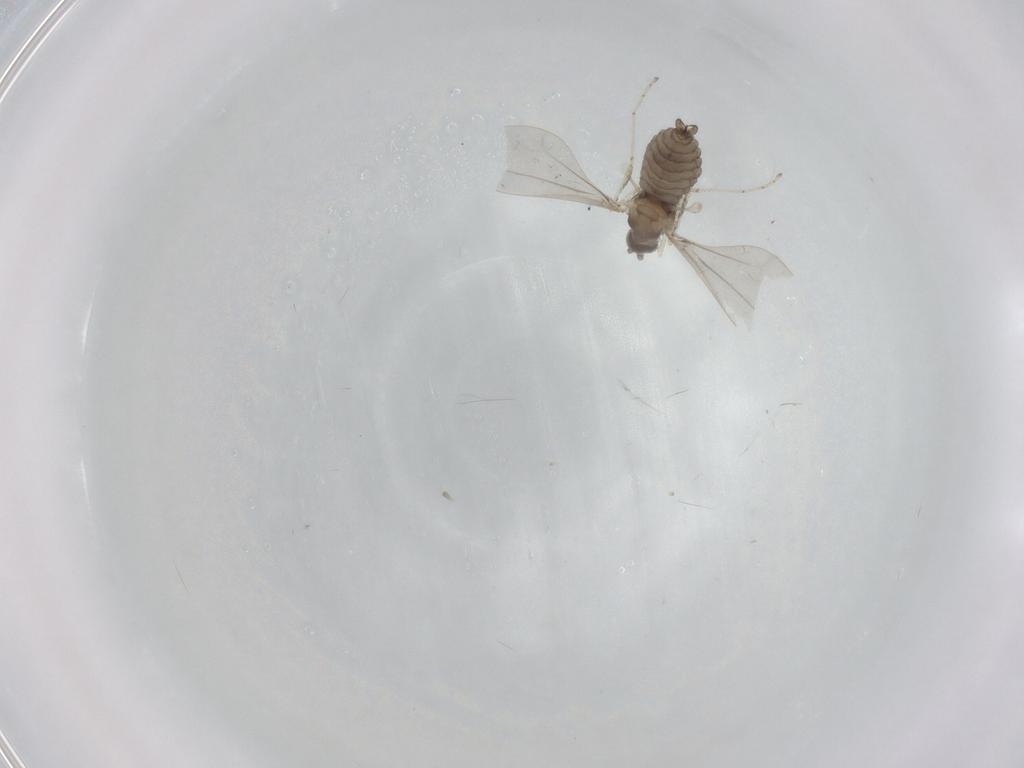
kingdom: Animalia
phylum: Arthropoda
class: Insecta
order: Diptera
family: Cecidomyiidae
